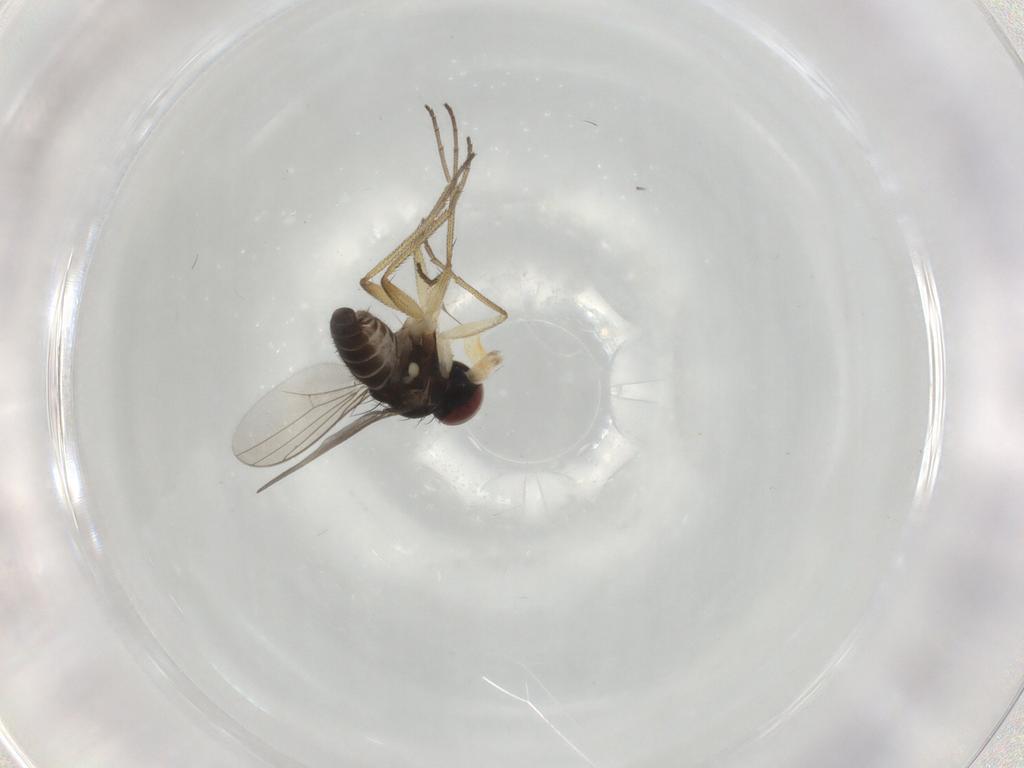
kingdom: Animalia
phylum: Arthropoda
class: Insecta
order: Diptera
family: Dolichopodidae
